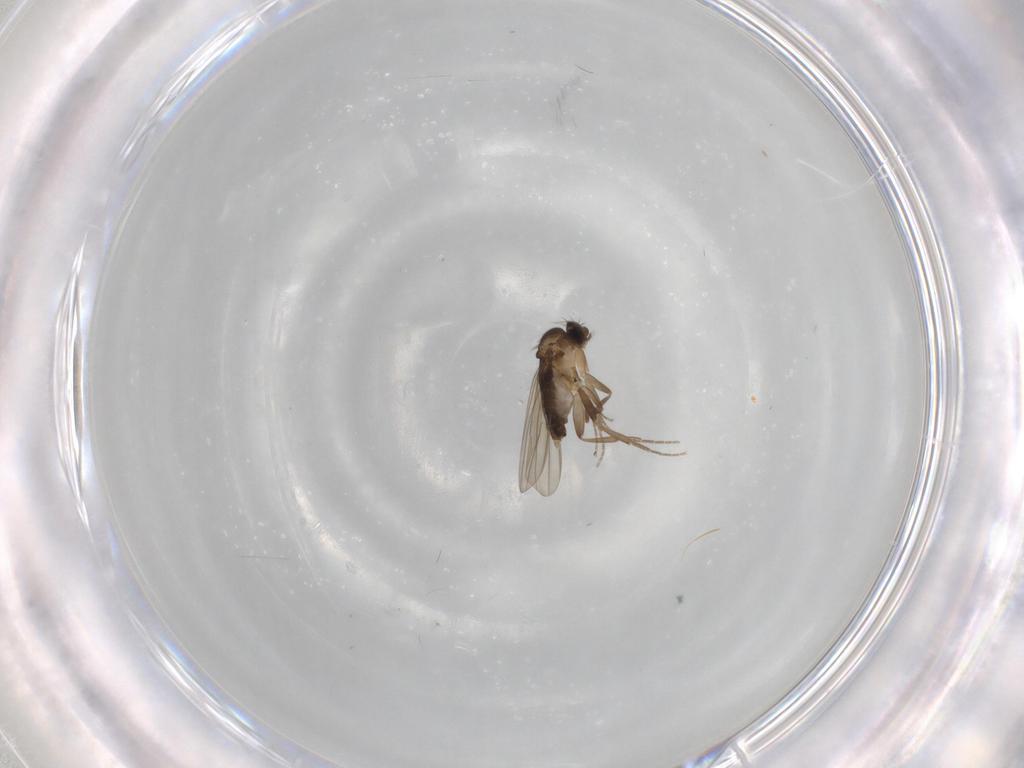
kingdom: Animalia
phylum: Arthropoda
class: Insecta
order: Diptera
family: Phoridae
